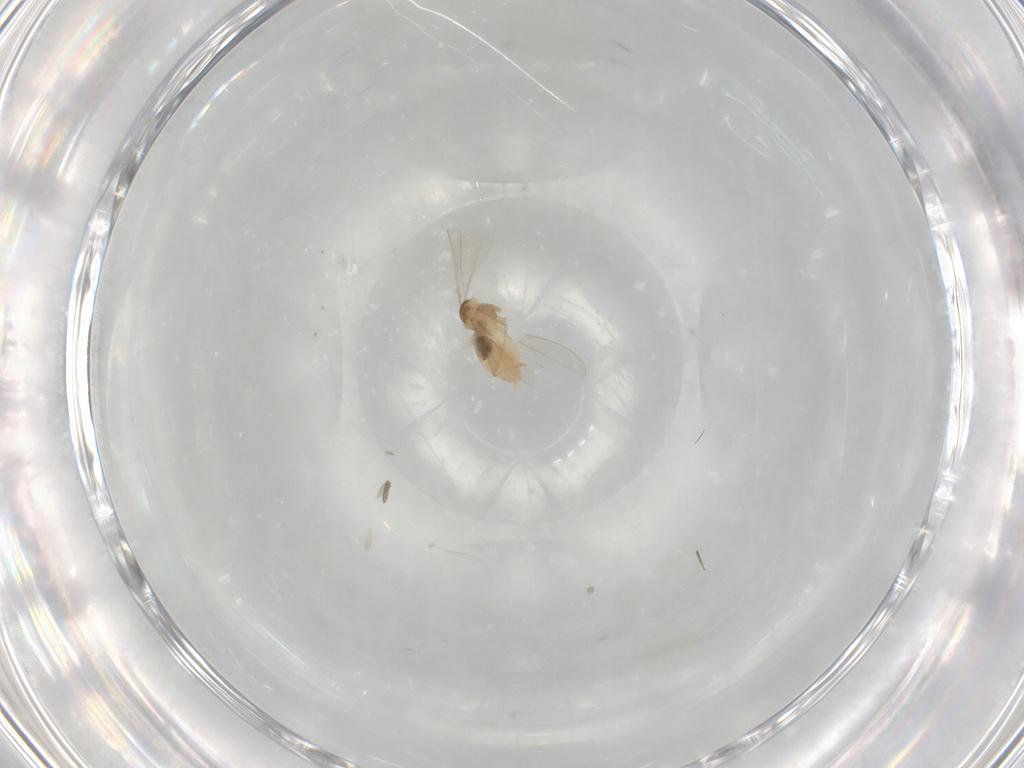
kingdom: Animalia
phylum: Arthropoda
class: Insecta
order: Diptera
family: Cecidomyiidae
